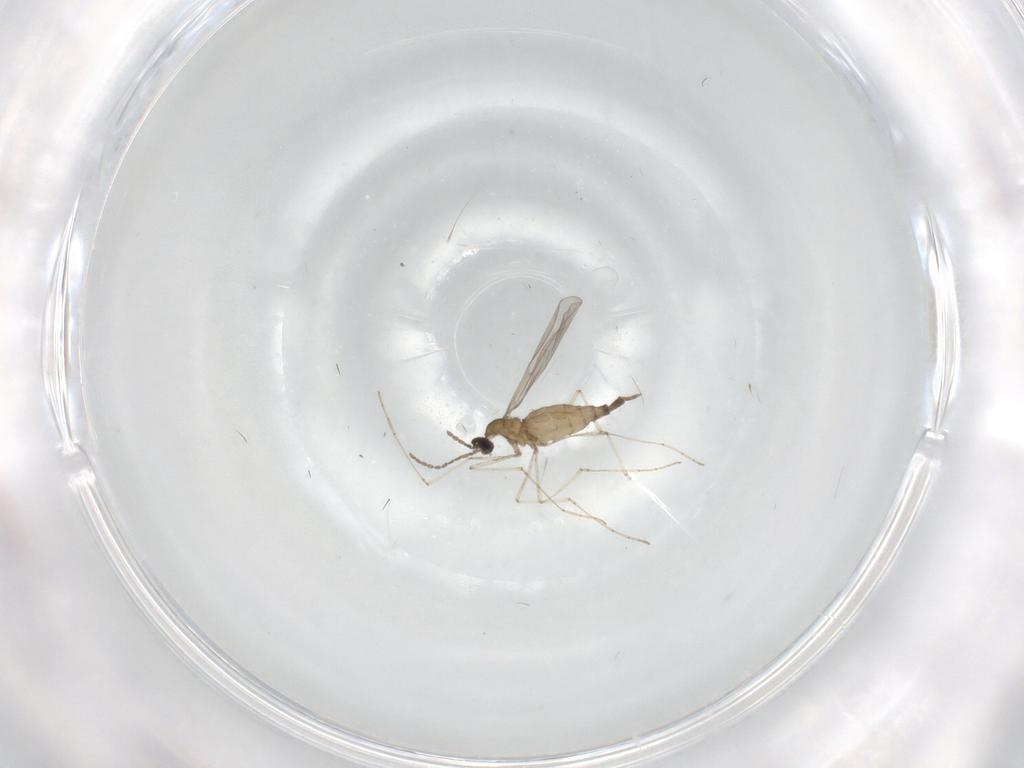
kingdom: Animalia
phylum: Arthropoda
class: Insecta
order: Diptera
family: Cecidomyiidae
